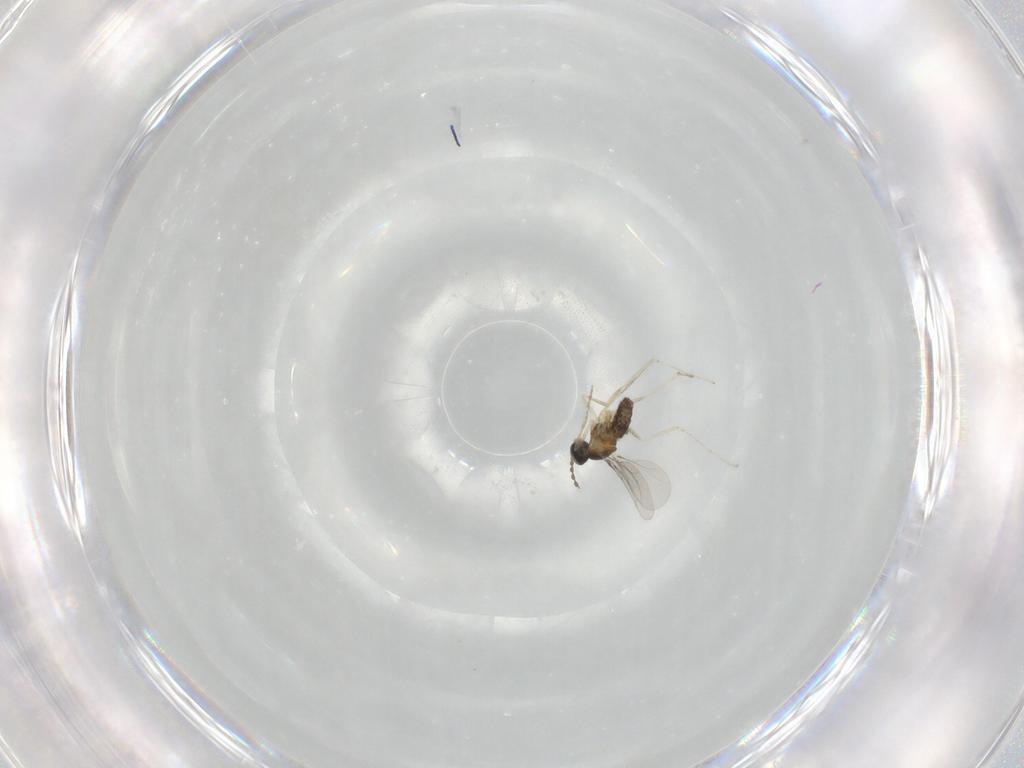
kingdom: Animalia
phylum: Arthropoda
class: Insecta
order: Diptera
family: Cecidomyiidae
